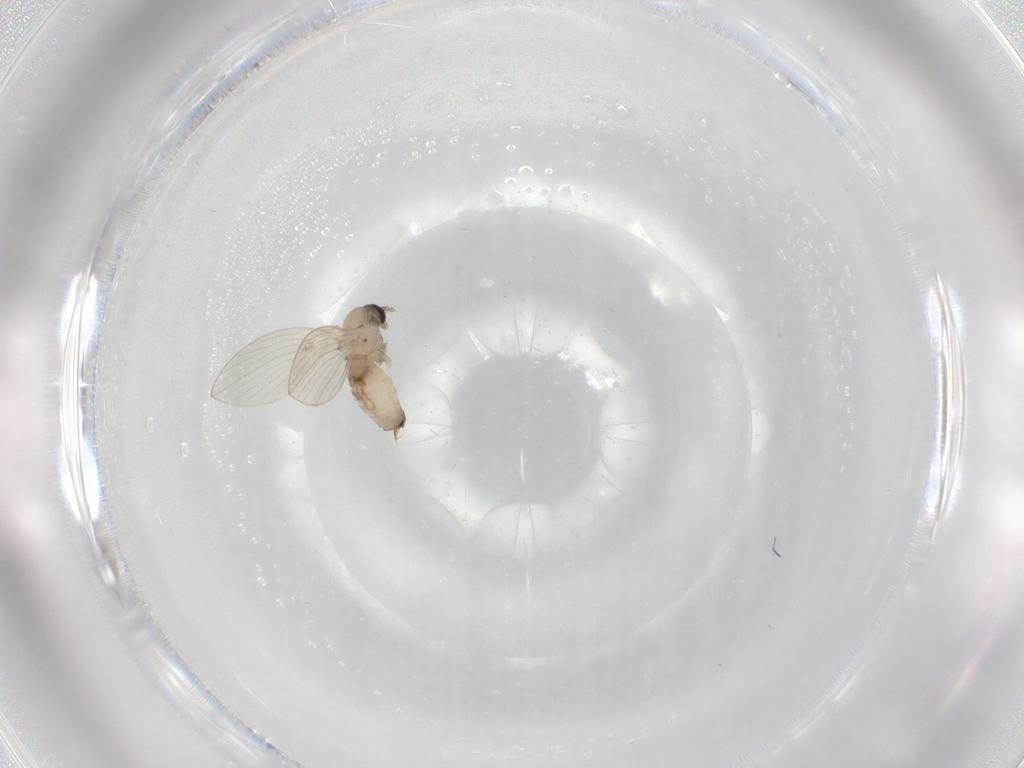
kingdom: Animalia
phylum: Arthropoda
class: Insecta
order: Diptera
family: Psychodidae
